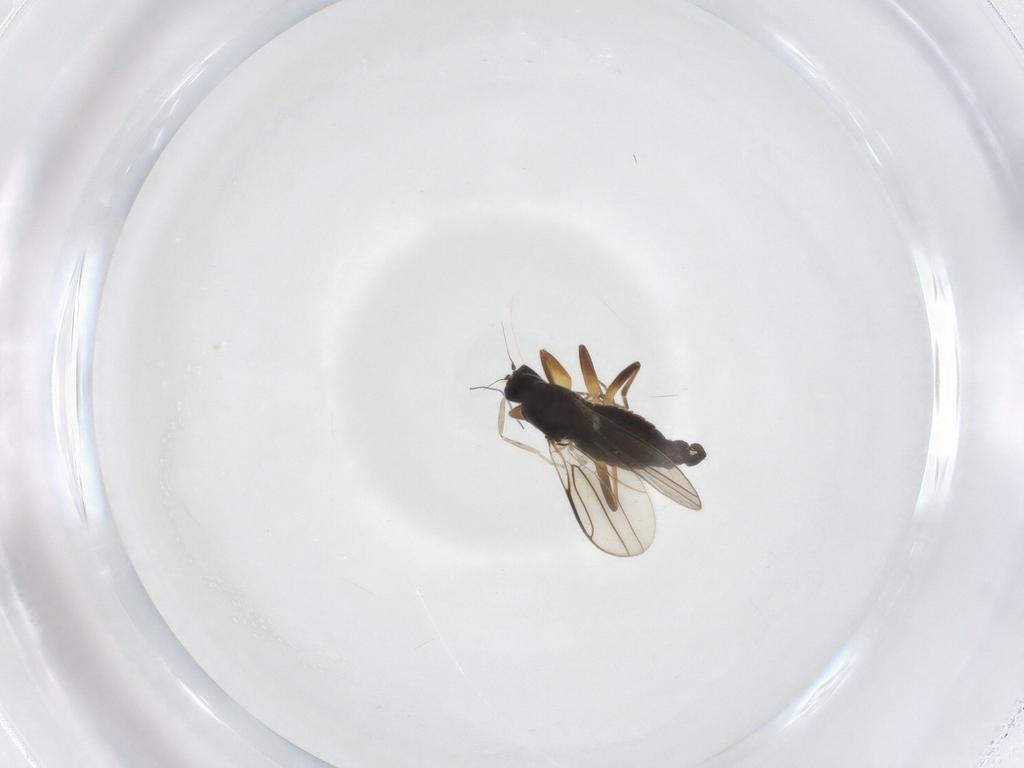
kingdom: Animalia
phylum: Arthropoda
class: Insecta
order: Diptera
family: Hybotidae
